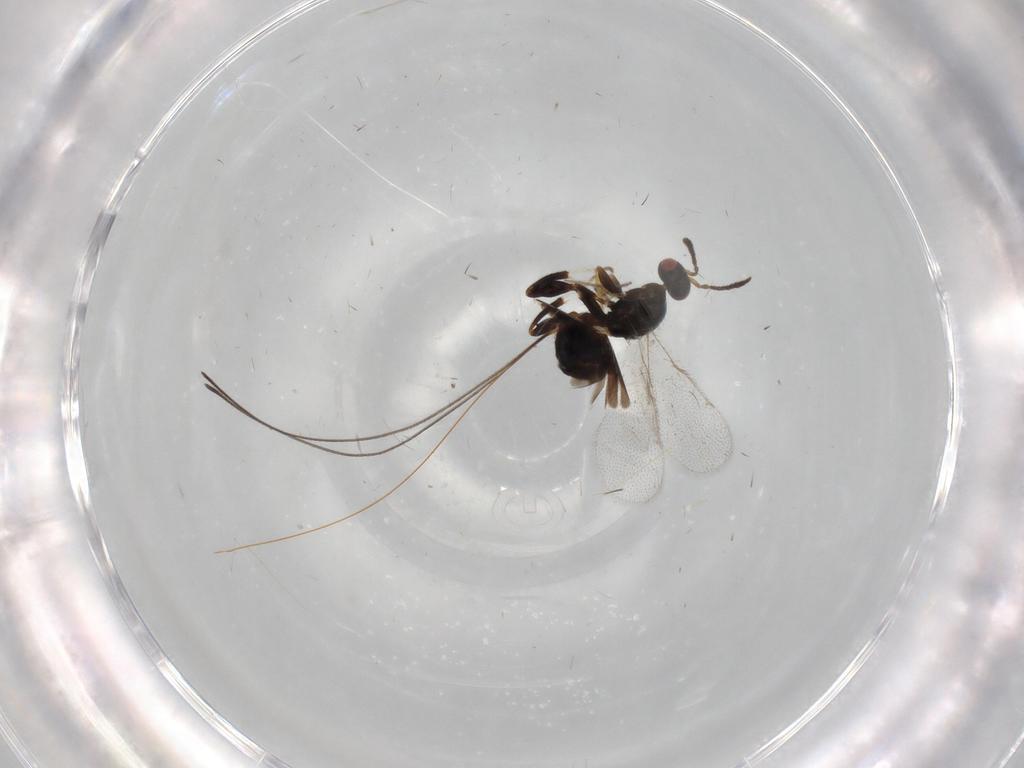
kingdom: Animalia
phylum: Arthropoda
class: Insecta
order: Hymenoptera
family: Torymidae
